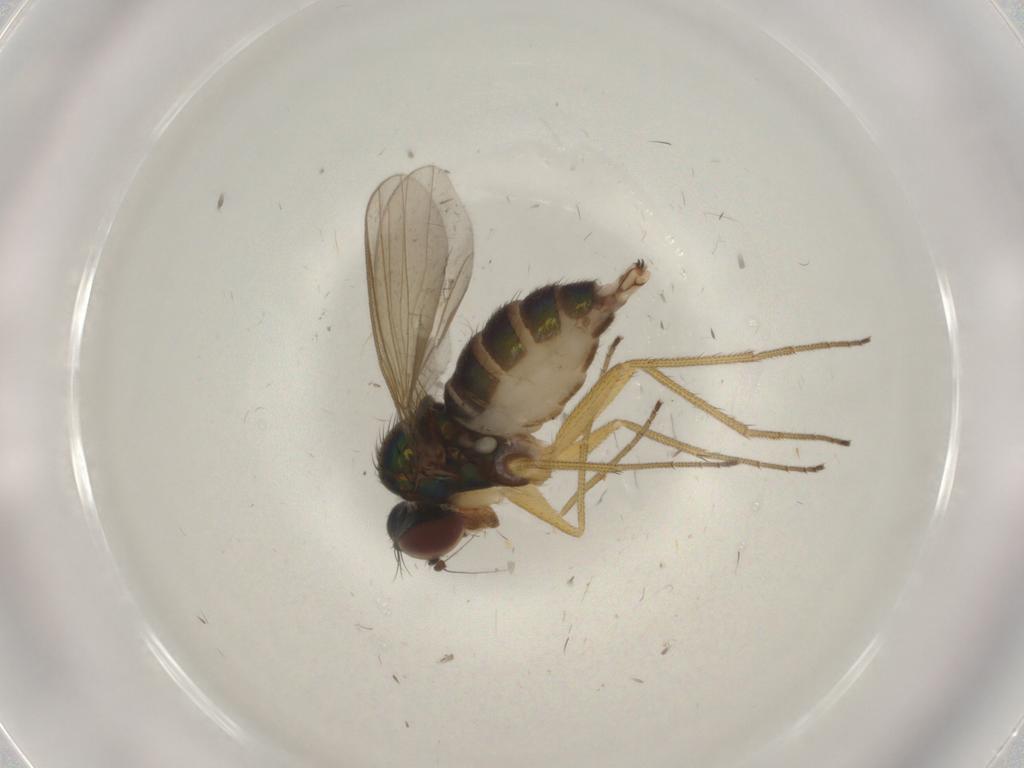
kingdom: Animalia
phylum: Arthropoda
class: Insecta
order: Diptera
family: Dolichopodidae
